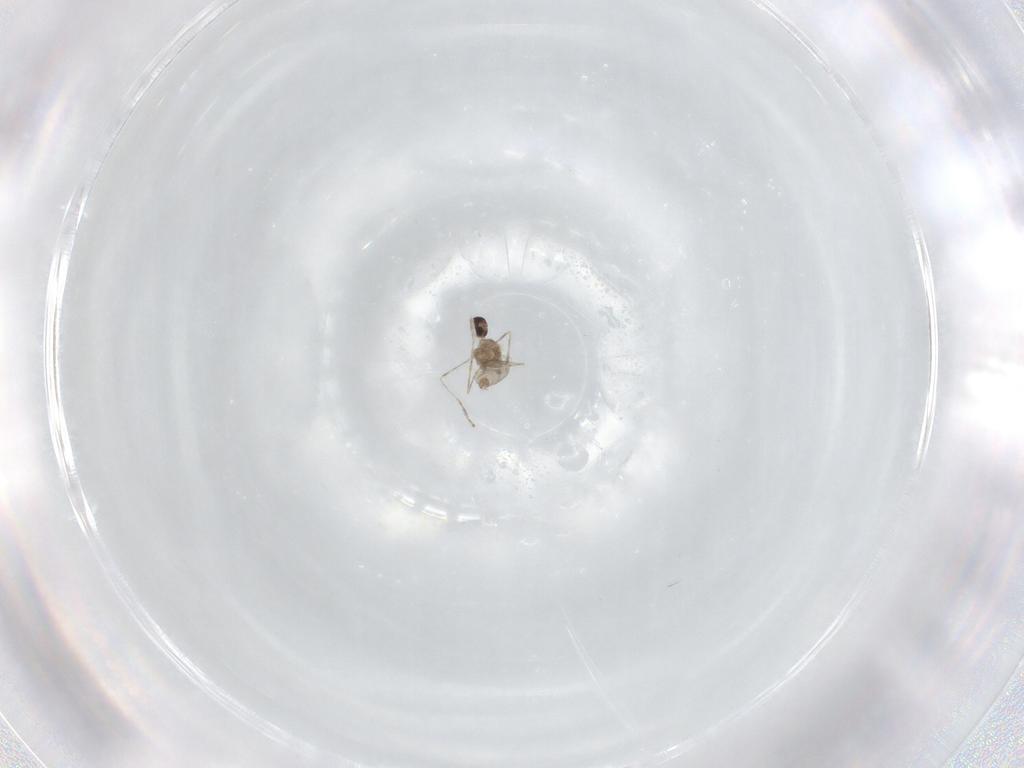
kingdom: Animalia
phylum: Arthropoda
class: Insecta
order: Diptera
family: Cecidomyiidae
